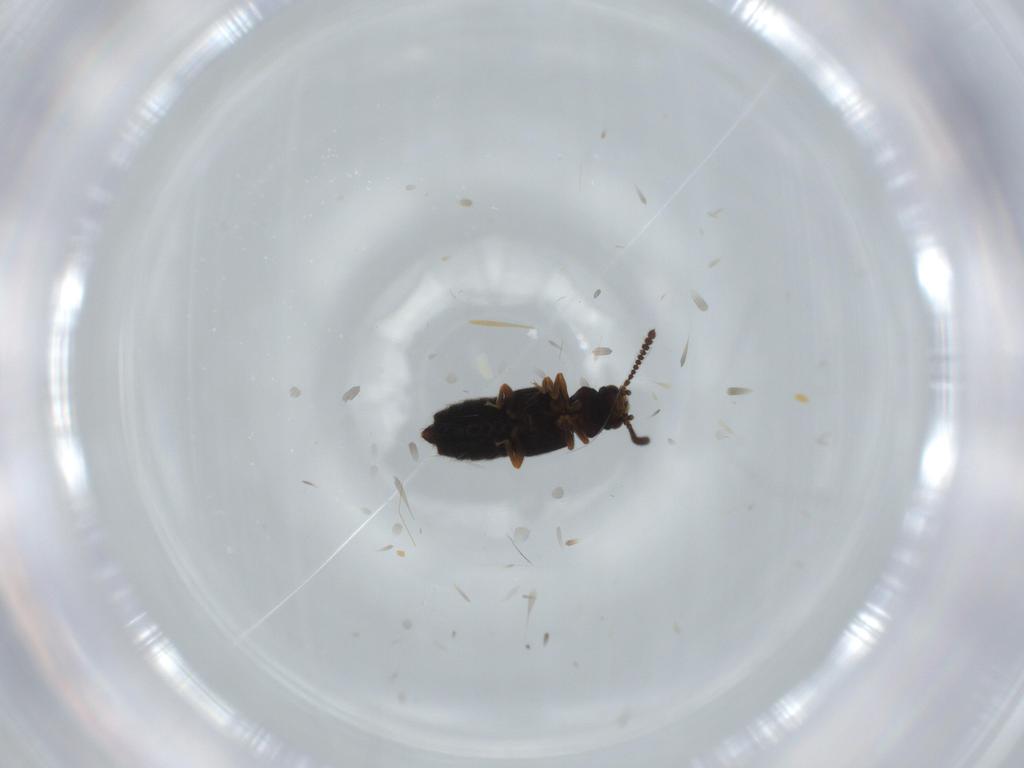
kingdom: Animalia
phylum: Arthropoda
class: Insecta
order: Coleoptera
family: Staphylinidae
